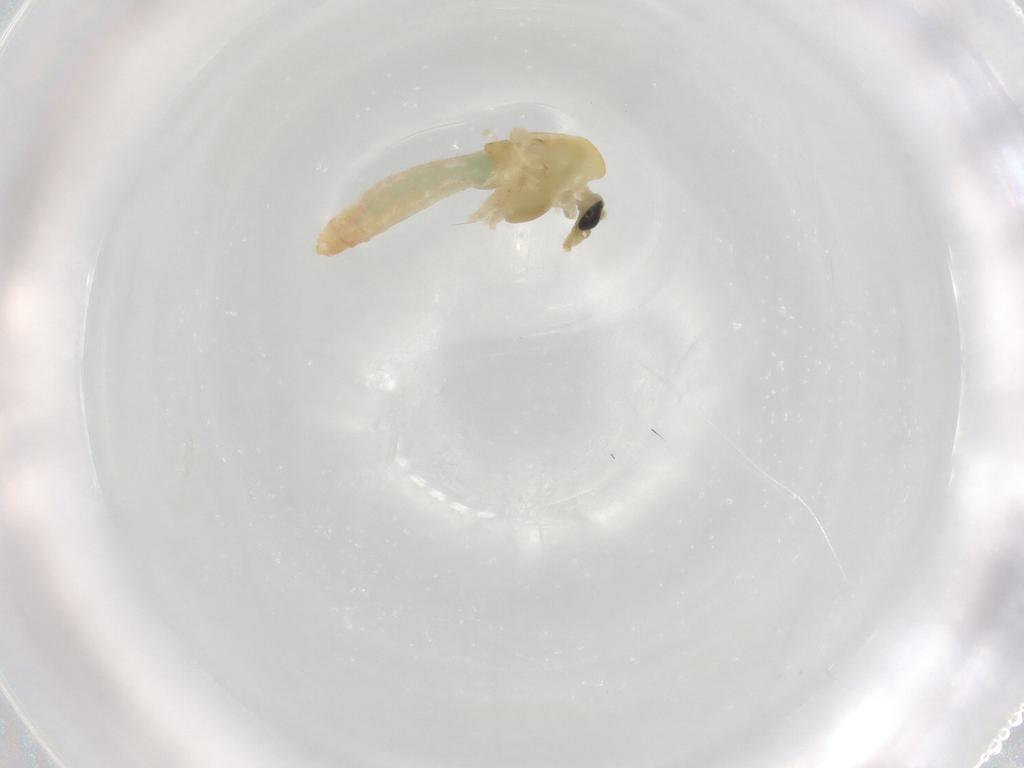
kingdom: Animalia
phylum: Arthropoda
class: Insecta
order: Diptera
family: Chironomidae
